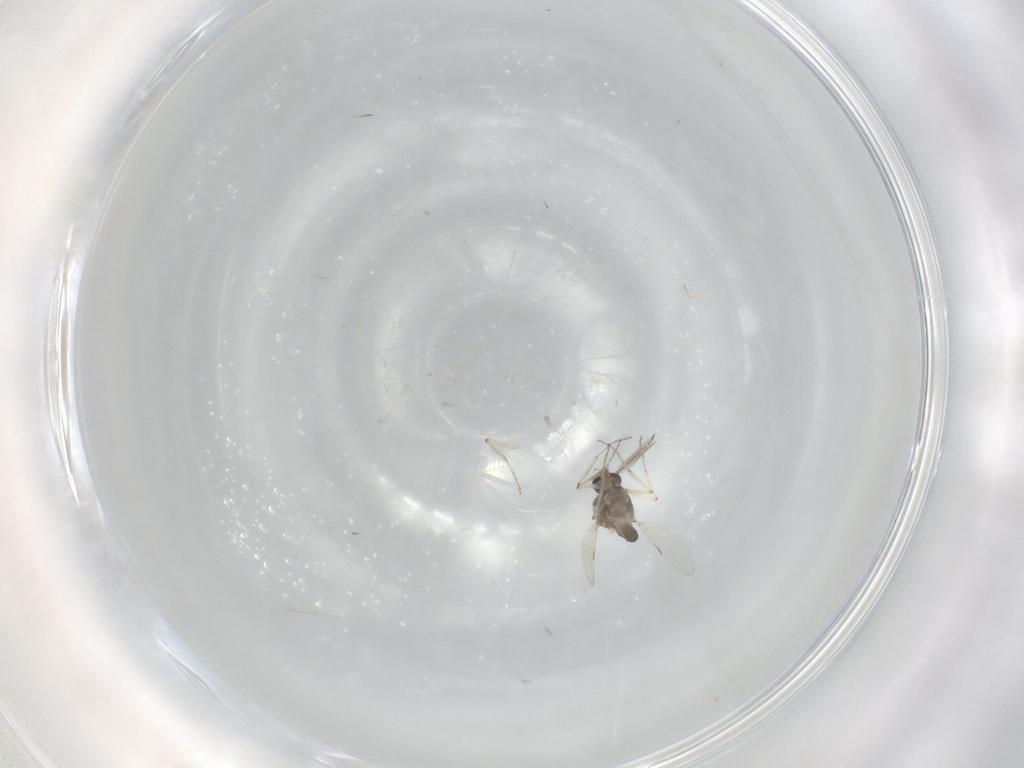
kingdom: Animalia
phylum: Arthropoda
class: Insecta
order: Diptera
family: Ceratopogonidae
